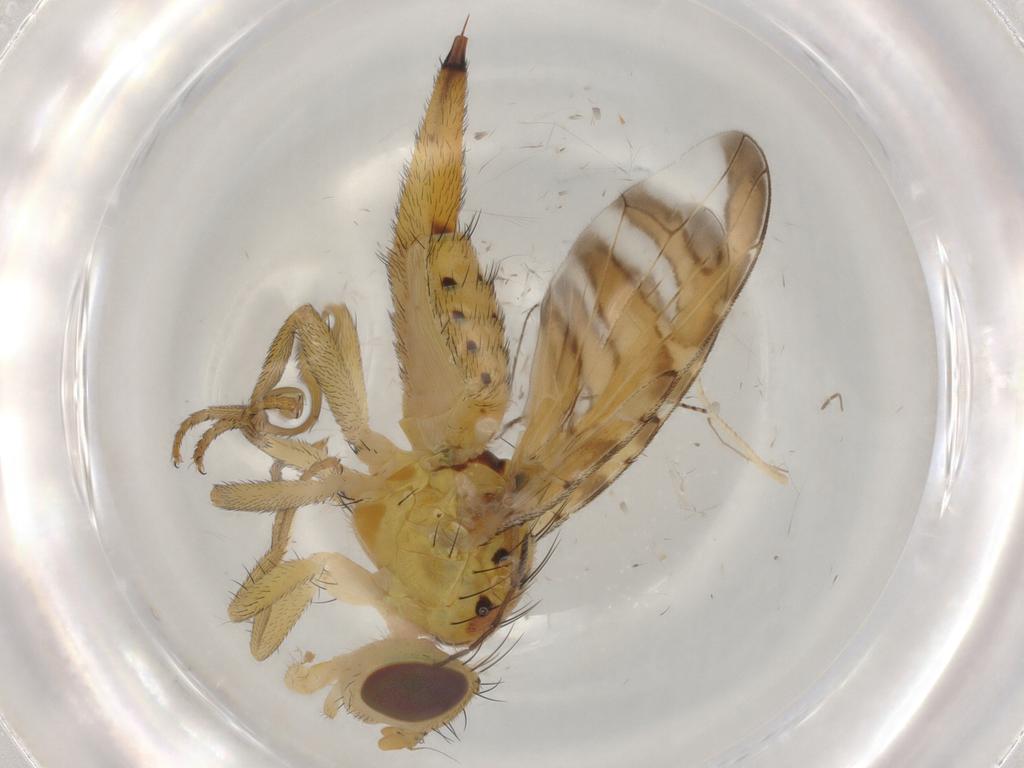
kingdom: Animalia
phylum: Arthropoda
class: Insecta
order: Diptera
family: Tephritidae
